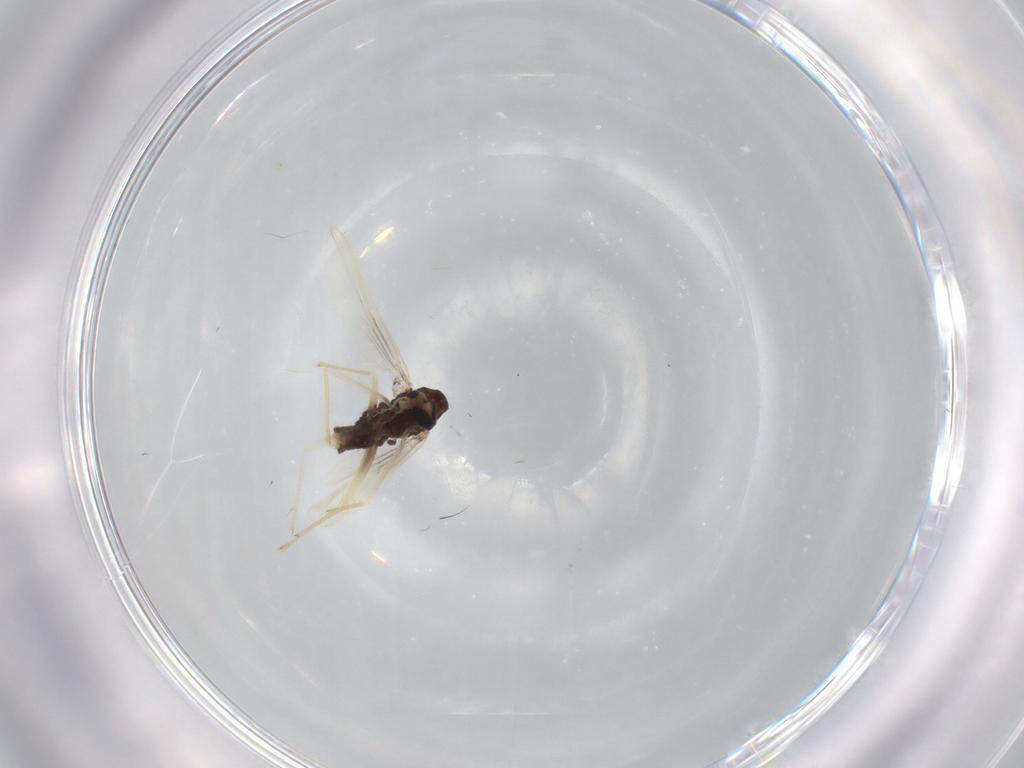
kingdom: Animalia
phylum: Arthropoda
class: Insecta
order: Diptera
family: Chironomidae
